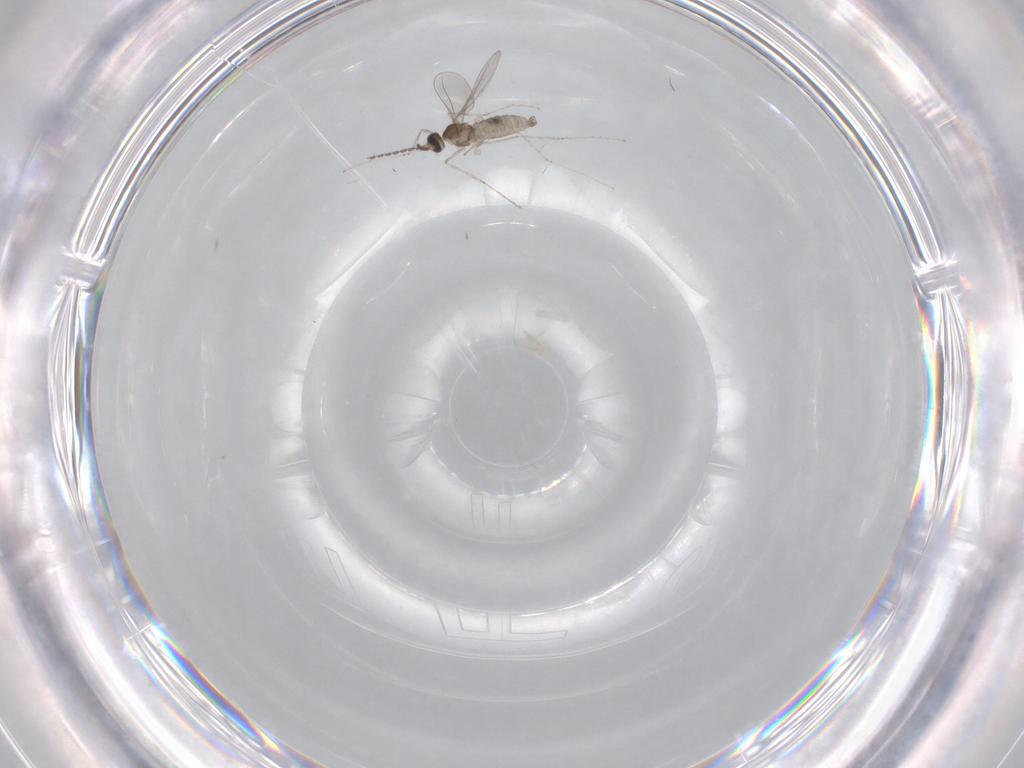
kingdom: Animalia
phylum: Arthropoda
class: Insecta
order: Diptera
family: Cecidomyiidae
